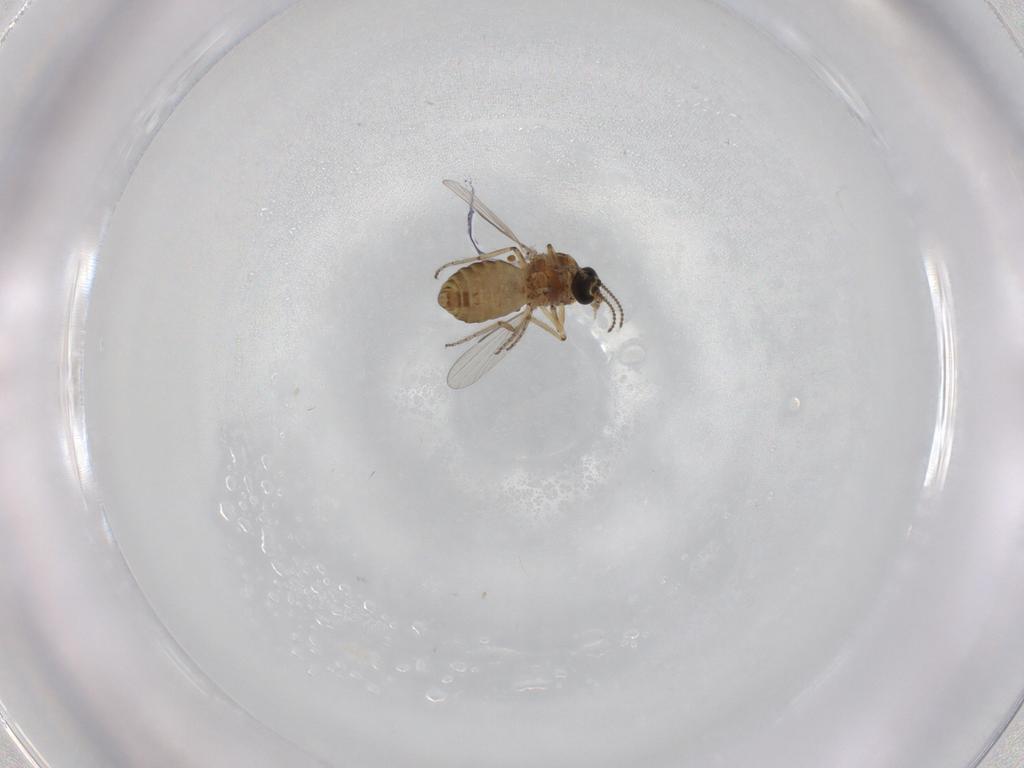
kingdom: Animalia
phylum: Arthropoda
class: Insecta
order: Diptera
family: Ceratopogonidae
